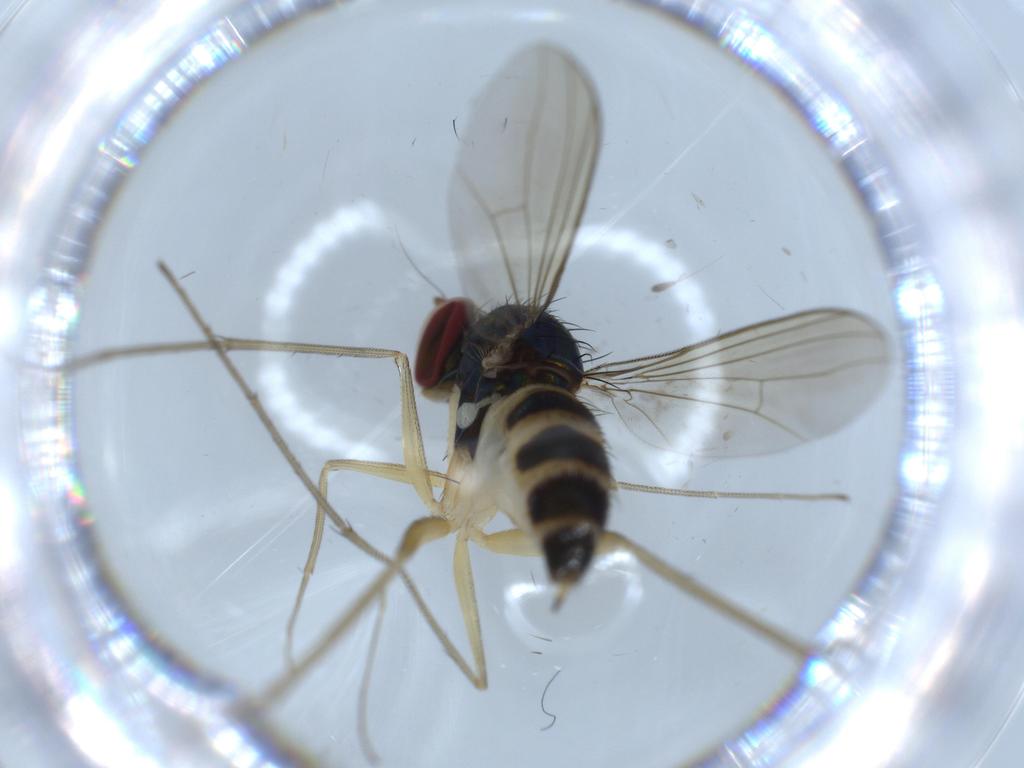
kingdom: Animalia
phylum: Arthropoda
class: Insecta
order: Diptera
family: Dolichopodidae
